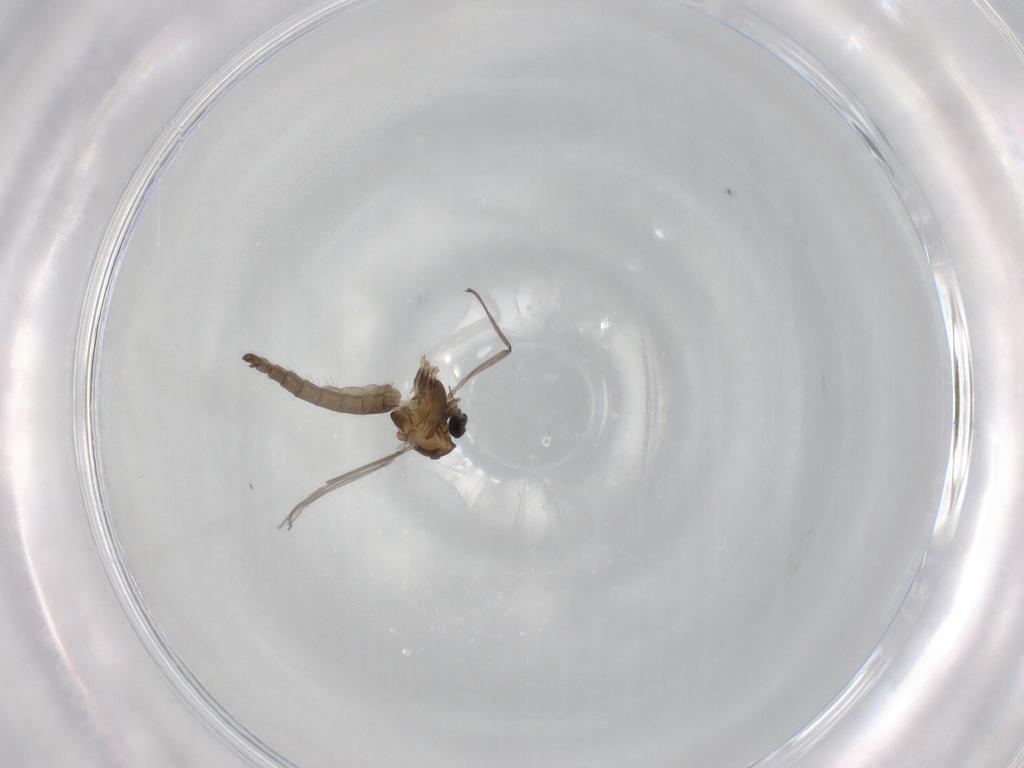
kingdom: Animalia
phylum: Arthropoda
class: Insecta
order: Diptera
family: Chironomidae
